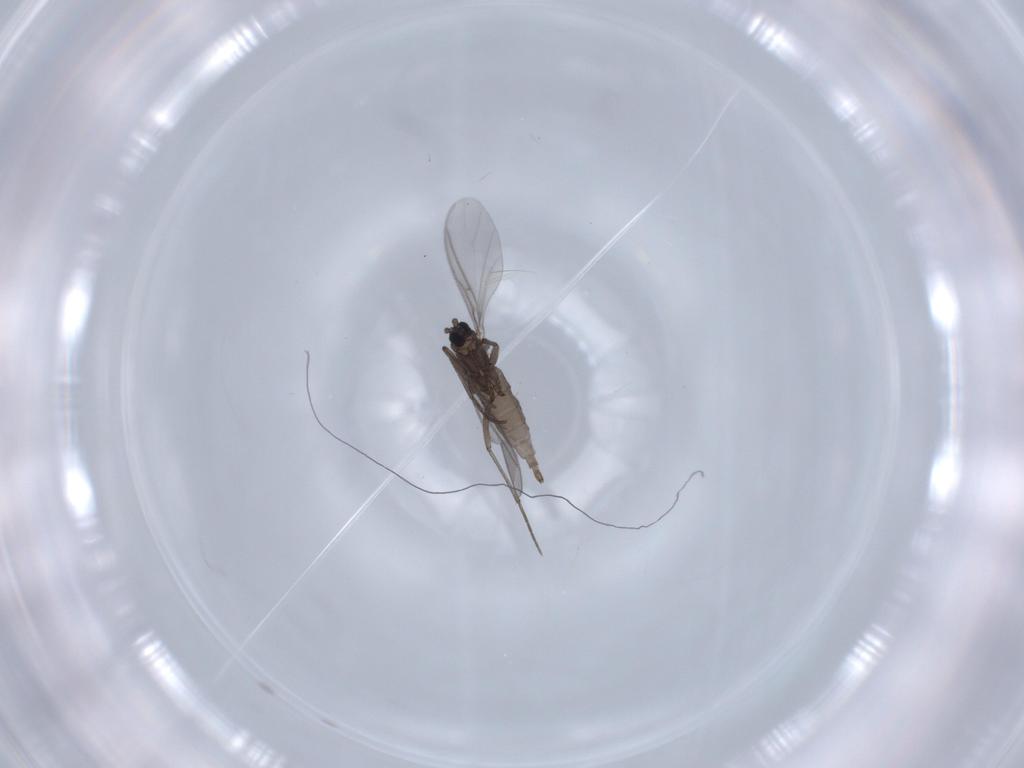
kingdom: Animalia
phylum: Arthropoda
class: Insecta
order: Diptera
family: Sciaridae
